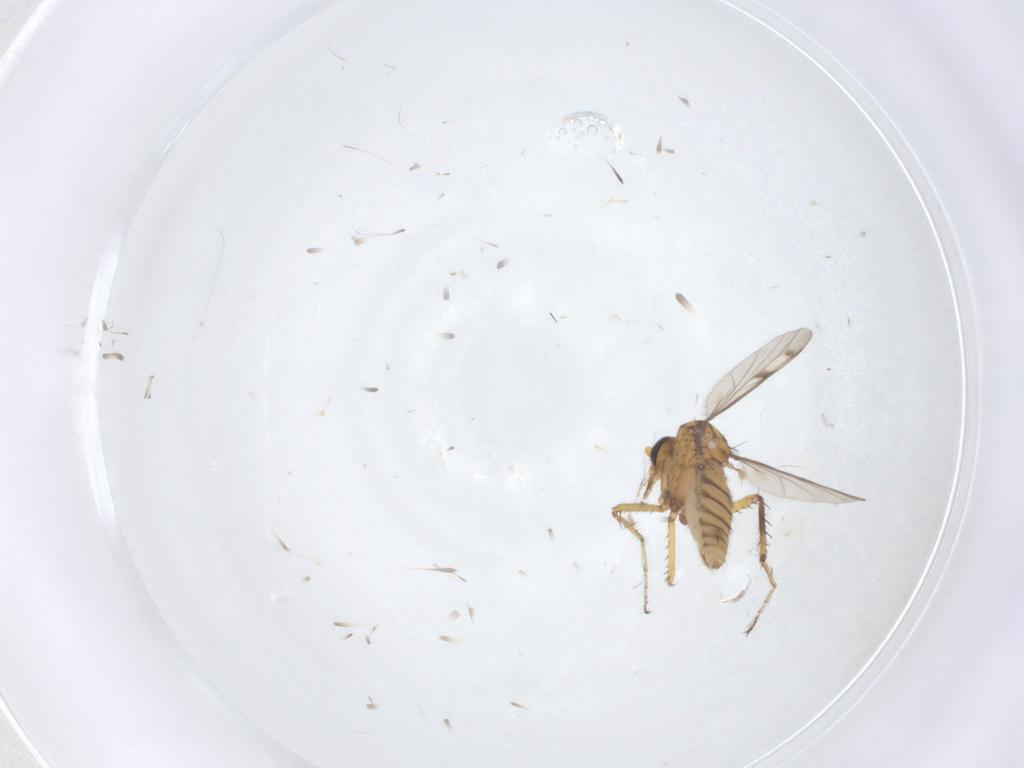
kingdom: Animalia
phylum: Arthropoda
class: Insecta
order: Diptera
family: Ceratopogonidae
